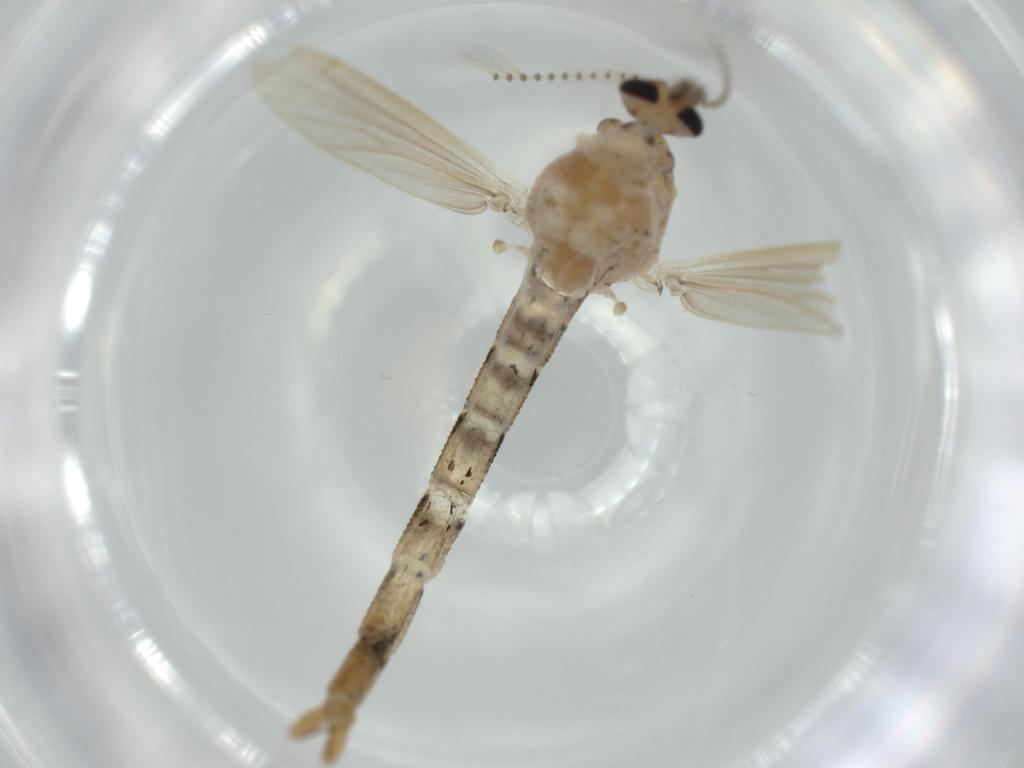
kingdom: Animalia
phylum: Arthropoda
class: Insecta
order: Diptera
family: Chironomidae
